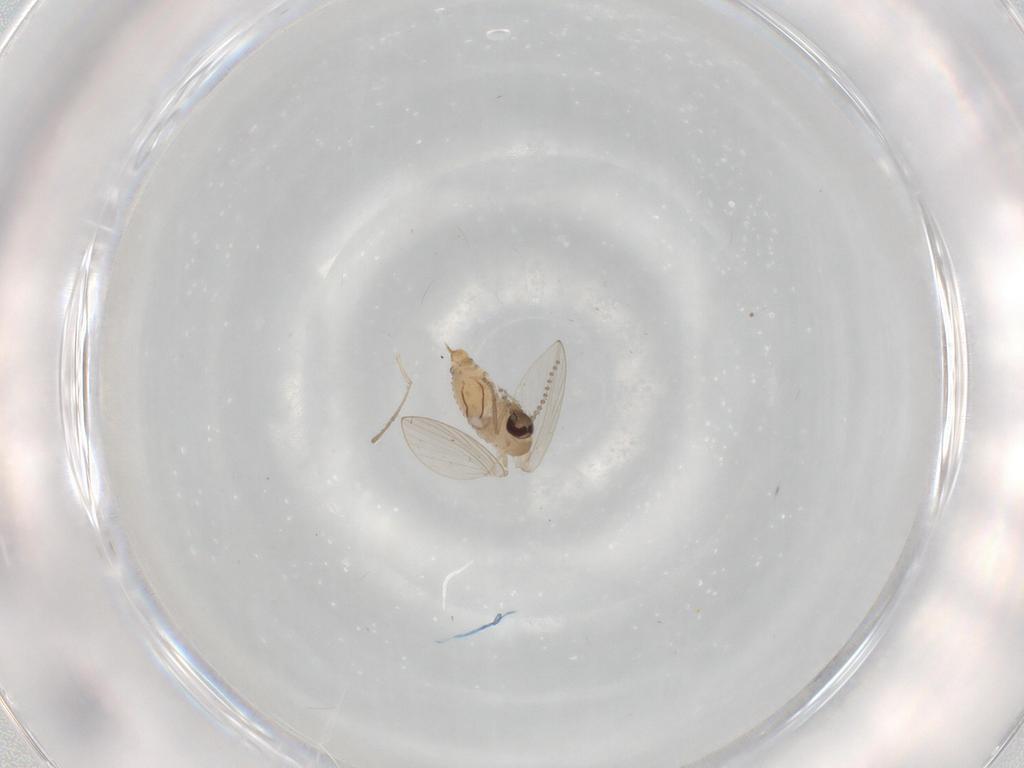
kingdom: Animalia
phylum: Arthropoda
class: Insecta
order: Diptera
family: Psychodidae
